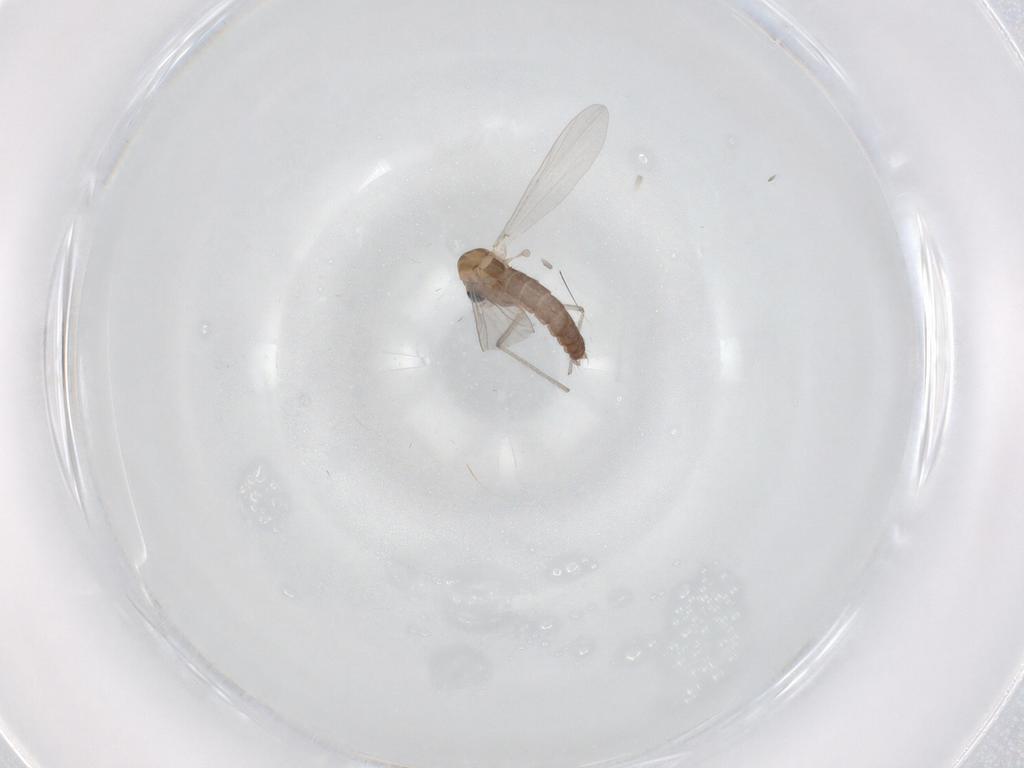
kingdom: Animalia
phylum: Arthropoda
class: Insecta
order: Diptera
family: Chironomidae
